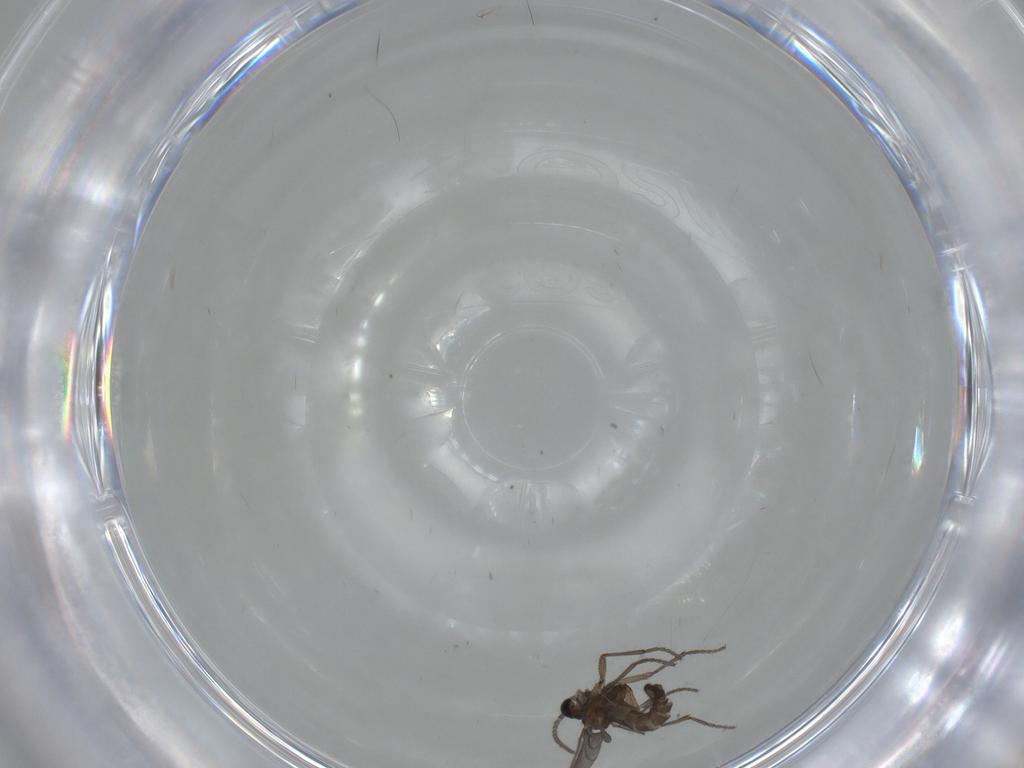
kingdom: Animalia
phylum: Arthropoda
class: Insecta
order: Diptera
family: Sciaridae
